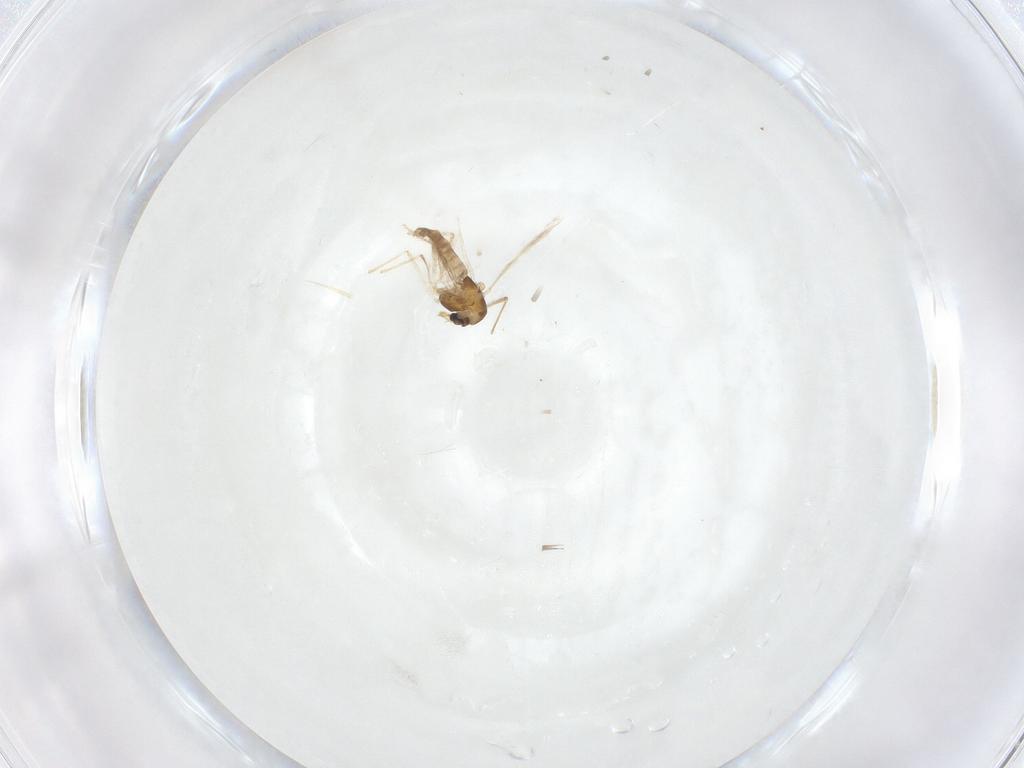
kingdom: Animalia
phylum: Arthropoda
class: Insecta
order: Diptera
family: Chironomidae
